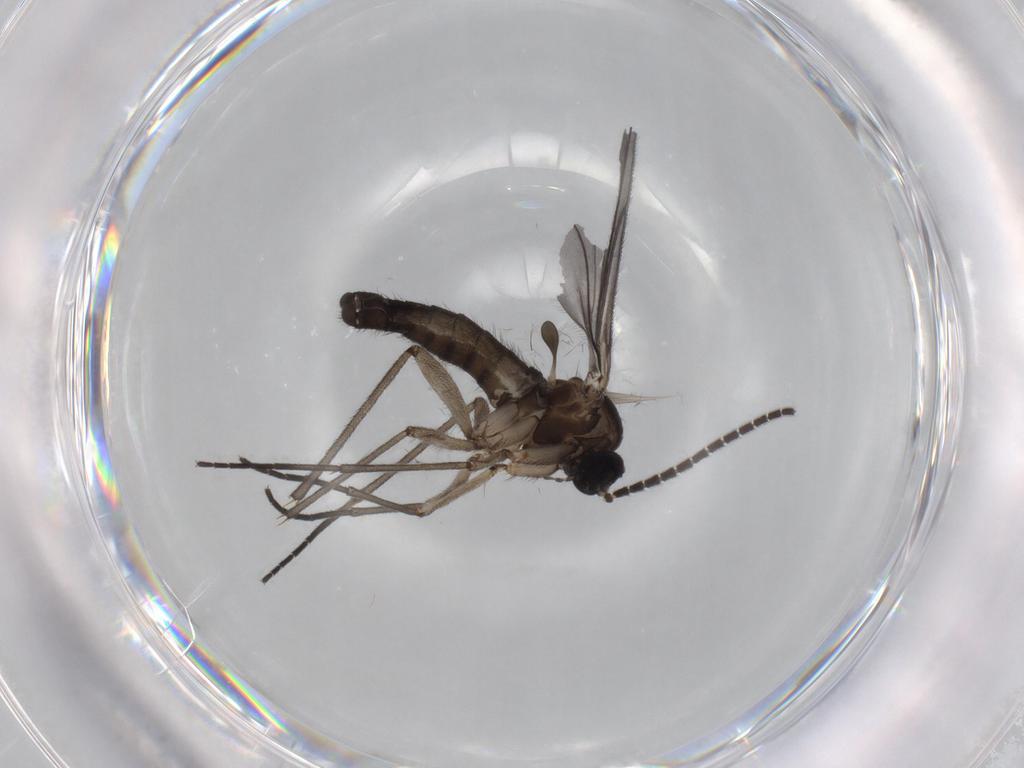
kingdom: Animalia
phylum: Arthropoda
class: Insecta
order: Diptera
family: Sciaridae
